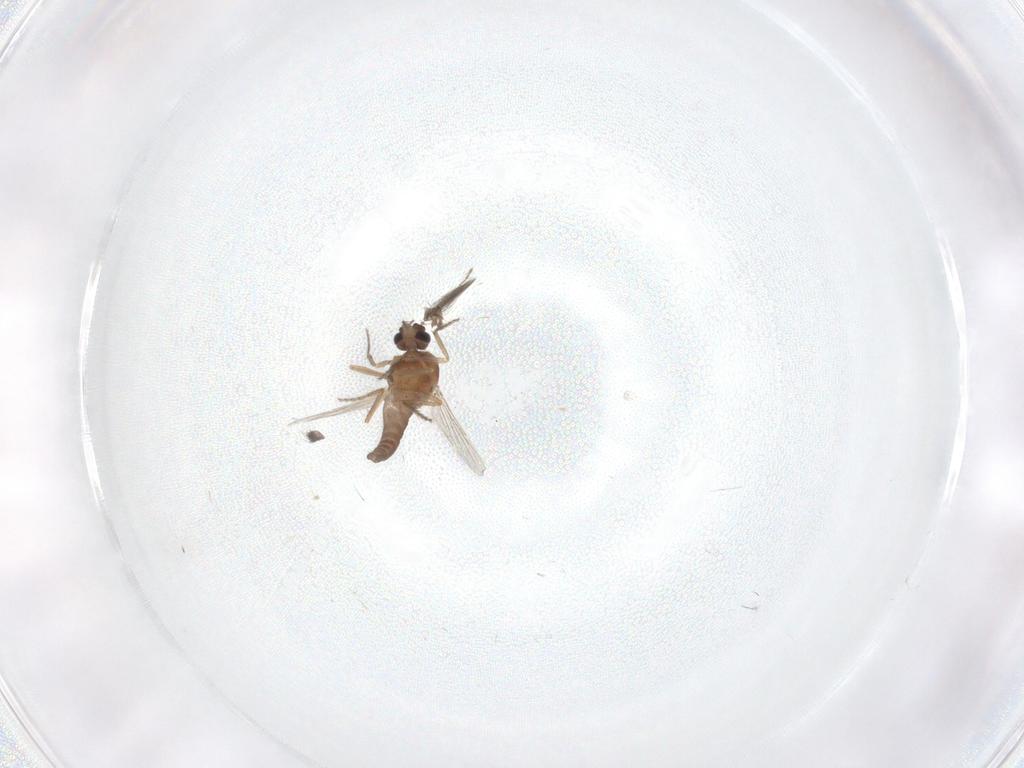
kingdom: Animalia
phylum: Arthropoda
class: Insecta
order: Diptera
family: Ceratopogonidae
